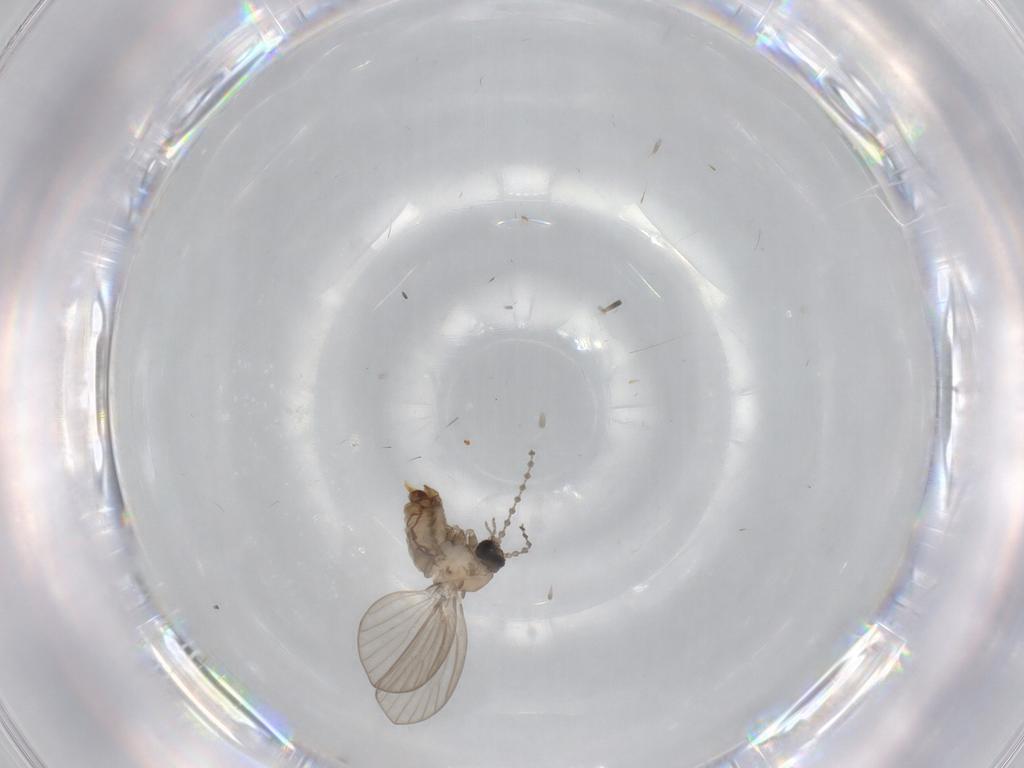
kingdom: Animalia
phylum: Arthropoda
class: Insecta
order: Diptera
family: Psychodidae
